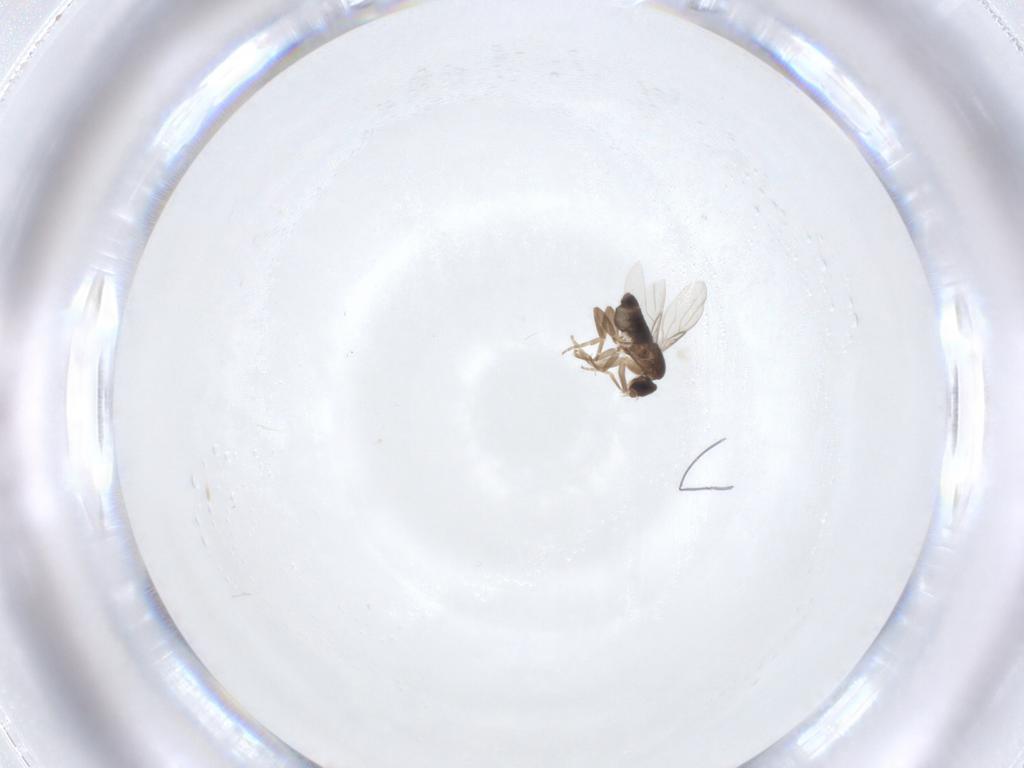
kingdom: Animalia
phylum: Arthropoda
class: Insecta
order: Diptera
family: Phoridae
